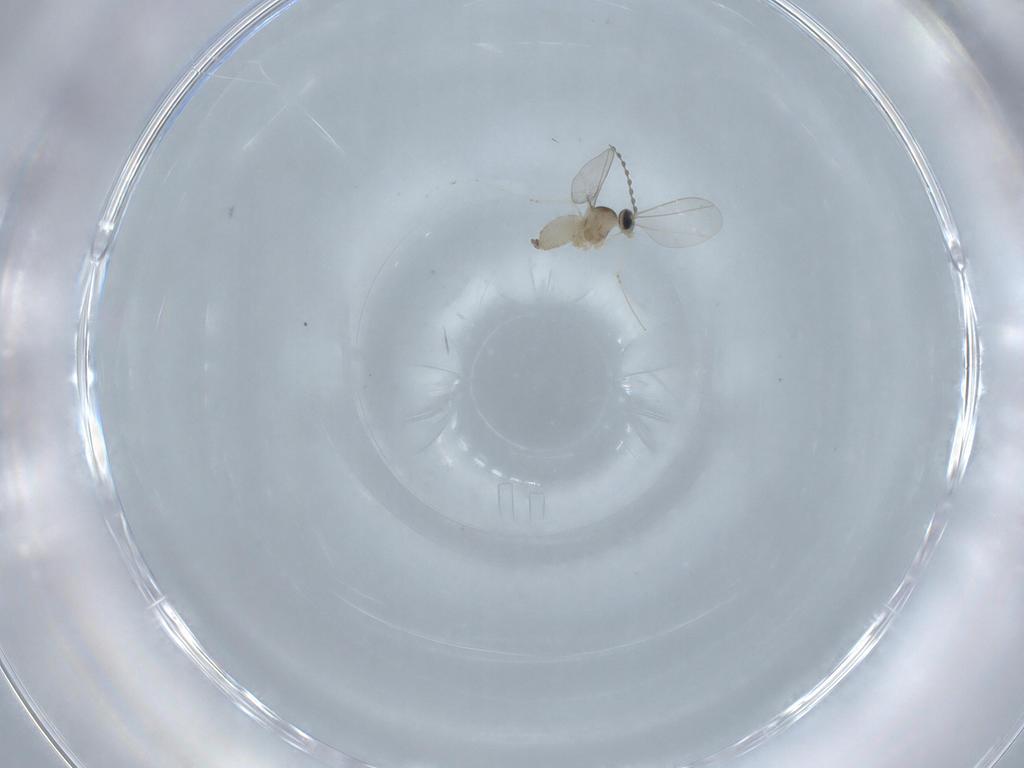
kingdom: Animalia
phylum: Arthropoda
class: Insecta
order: Diptera
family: Cecidomyiidae
